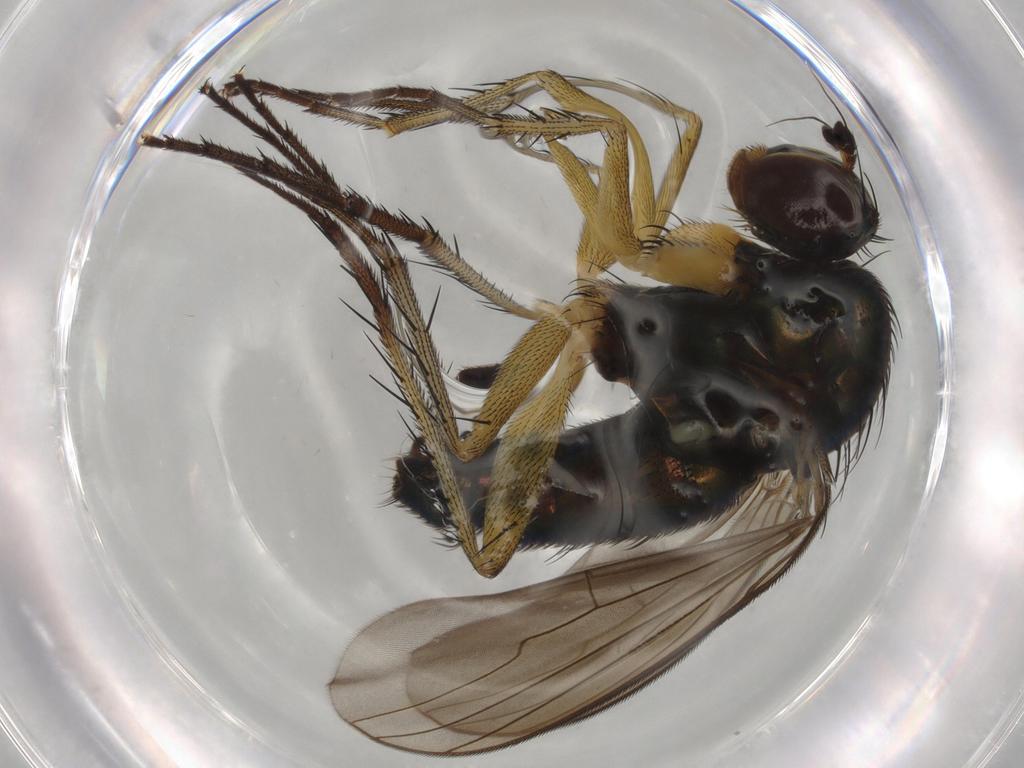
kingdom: Animalia
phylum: Arthropoda
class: Insecta
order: Diptera
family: Dolichopodidae
